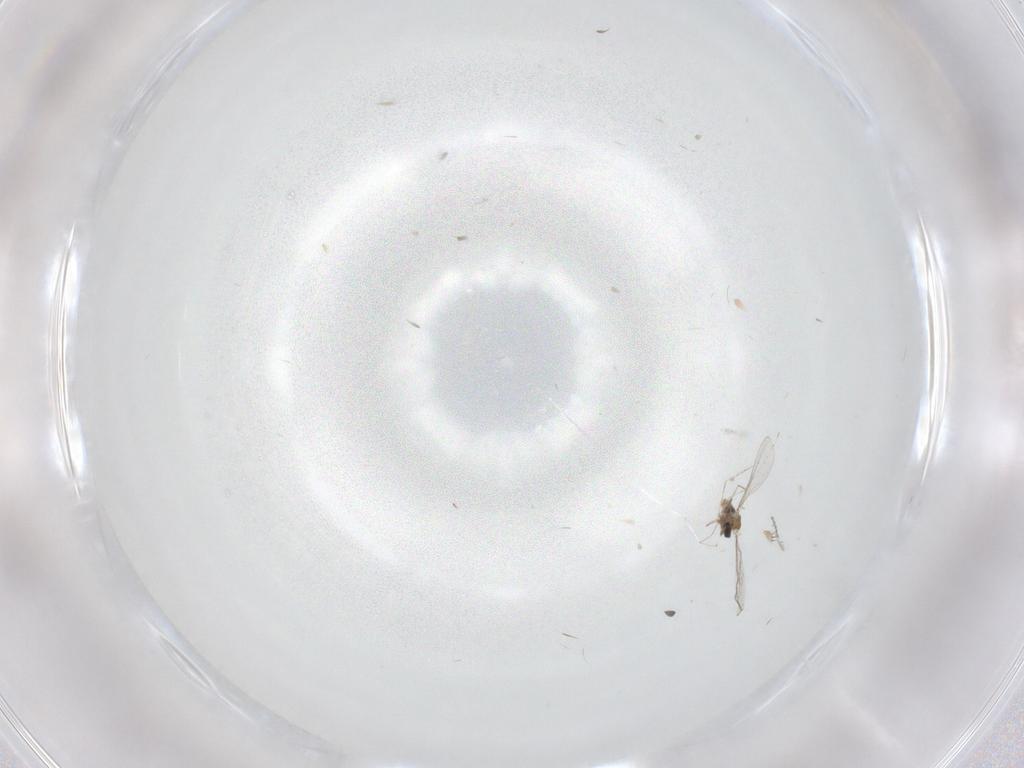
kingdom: Animalia
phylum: Arthropoda
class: Insecta
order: Diptera
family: Cecidomyiidae
